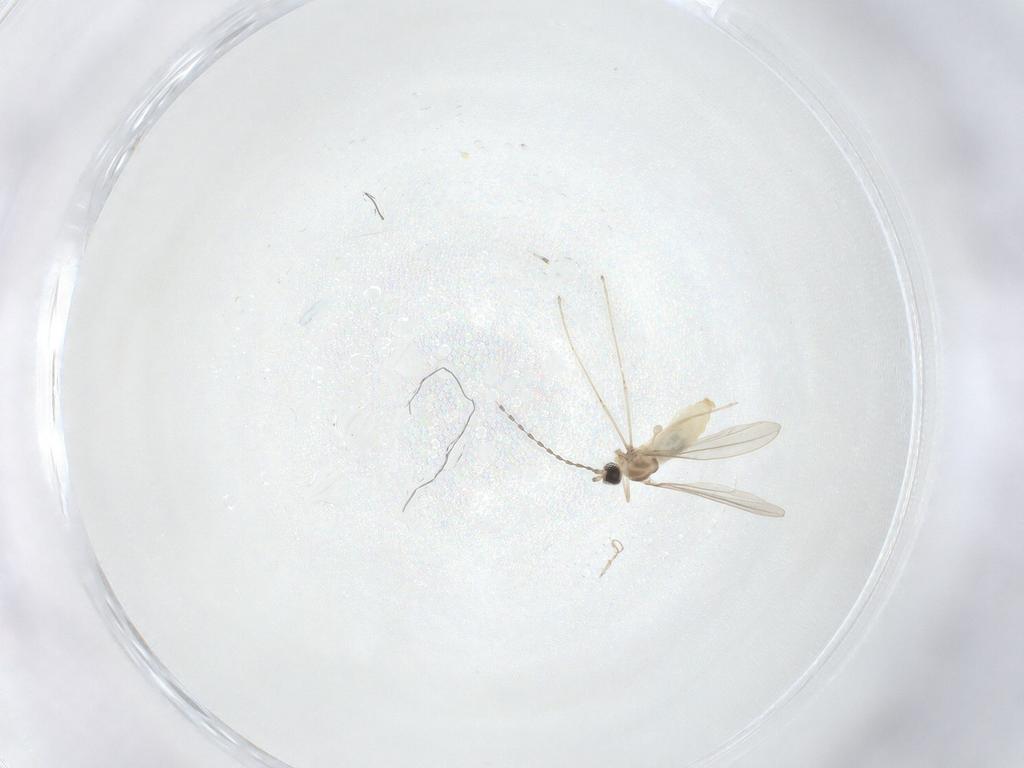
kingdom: Animalia
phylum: Arthropoda
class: Insecta
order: Diptera
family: Cecidomyiidae
